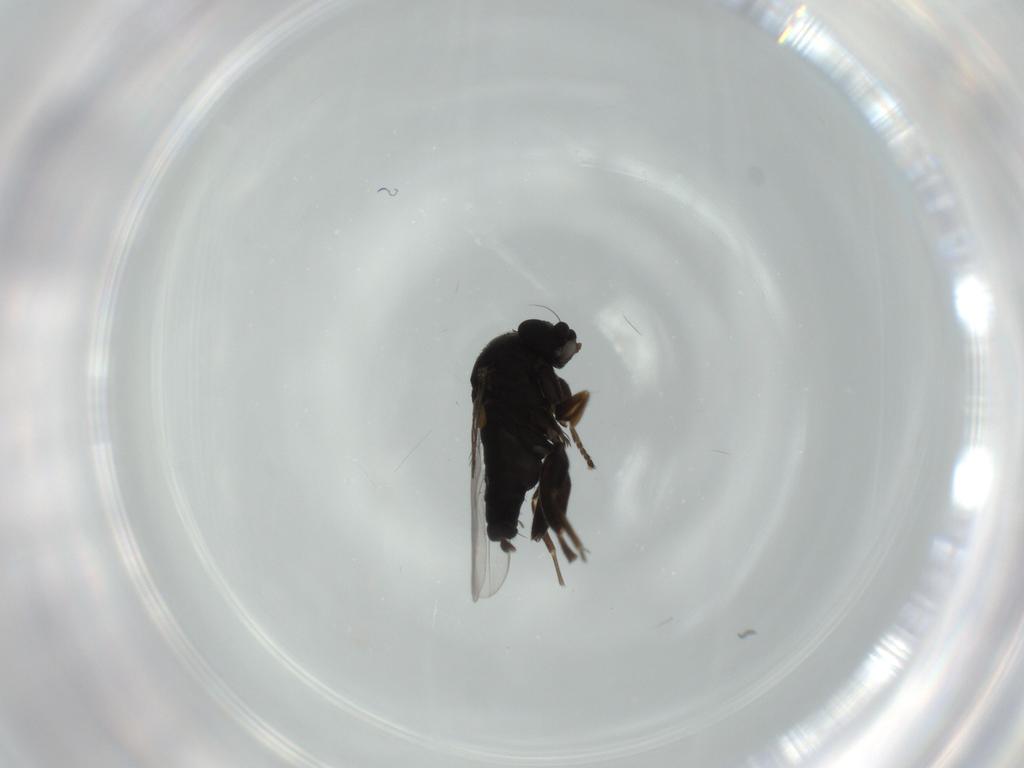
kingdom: Animalia
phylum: Arthropoda
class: Insecta
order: Diptera
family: Phoridae
